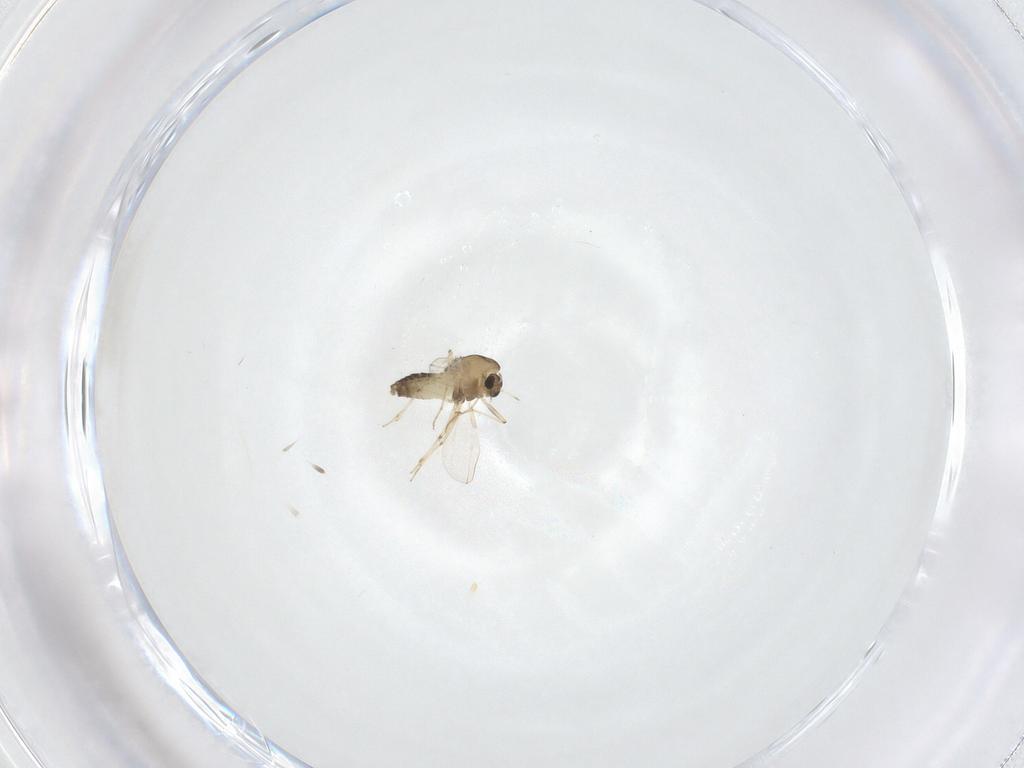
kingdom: Animalia
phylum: Arthropoda
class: Insecta
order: Diptera
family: Chironomidae
